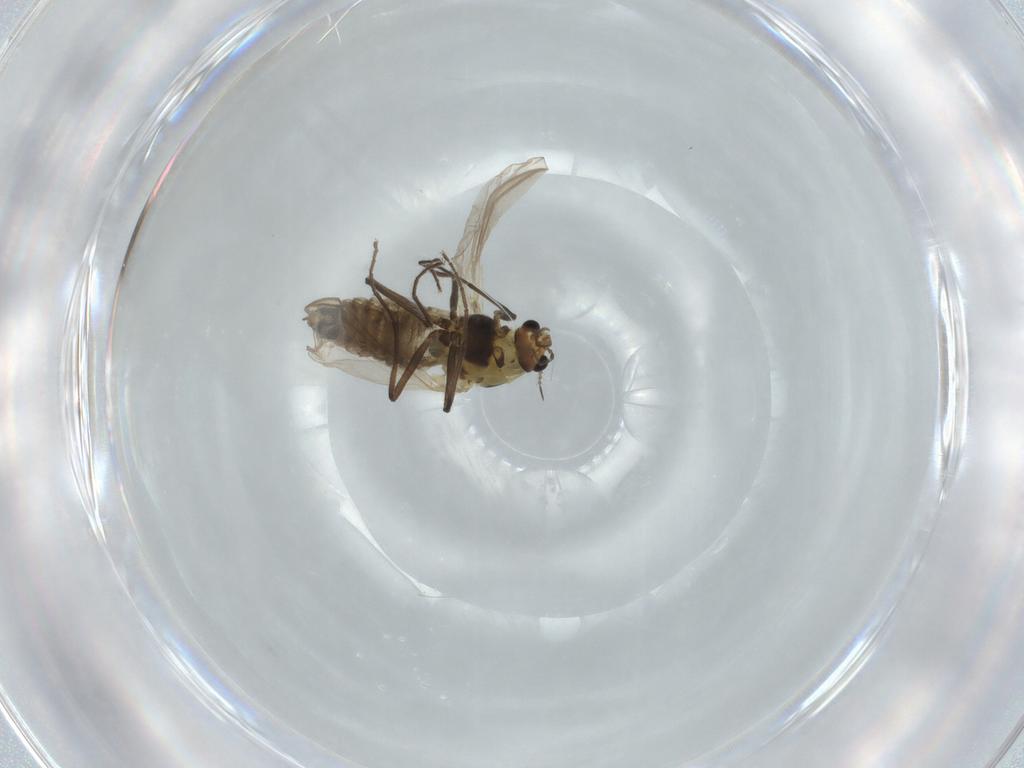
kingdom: Animalia
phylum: Arthropoda
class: Insecta
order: Diptera
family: Chironomidae
